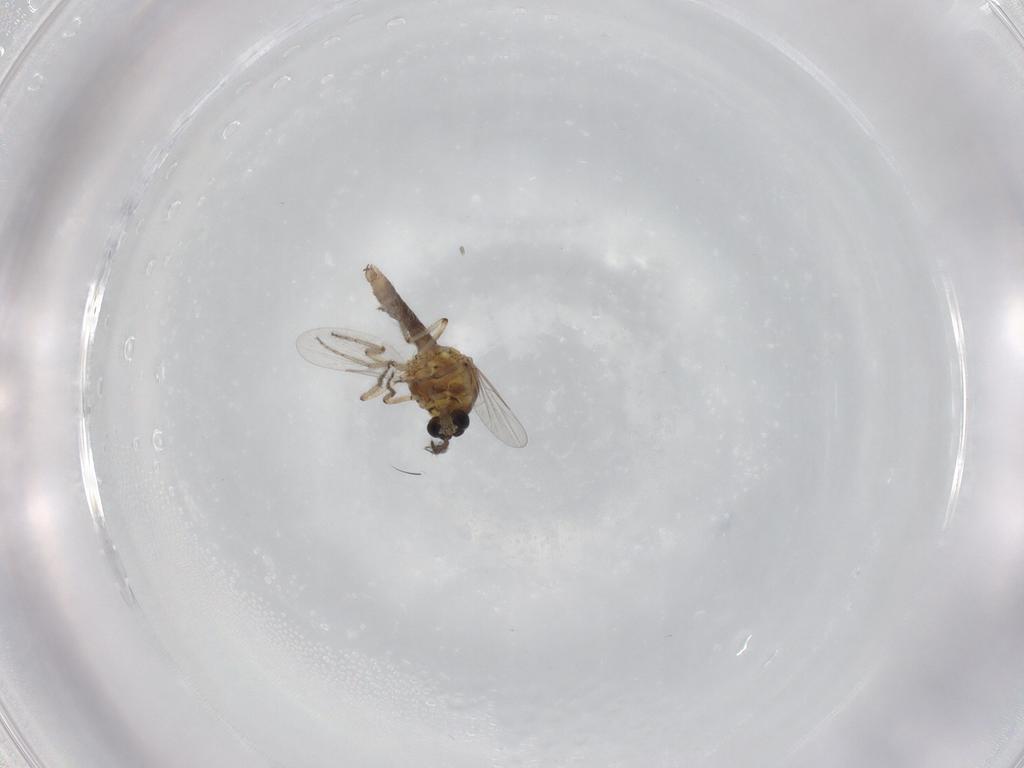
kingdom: Animalia
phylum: Arthropoda
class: Insecta
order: Diptera
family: Ceratopogonidae
